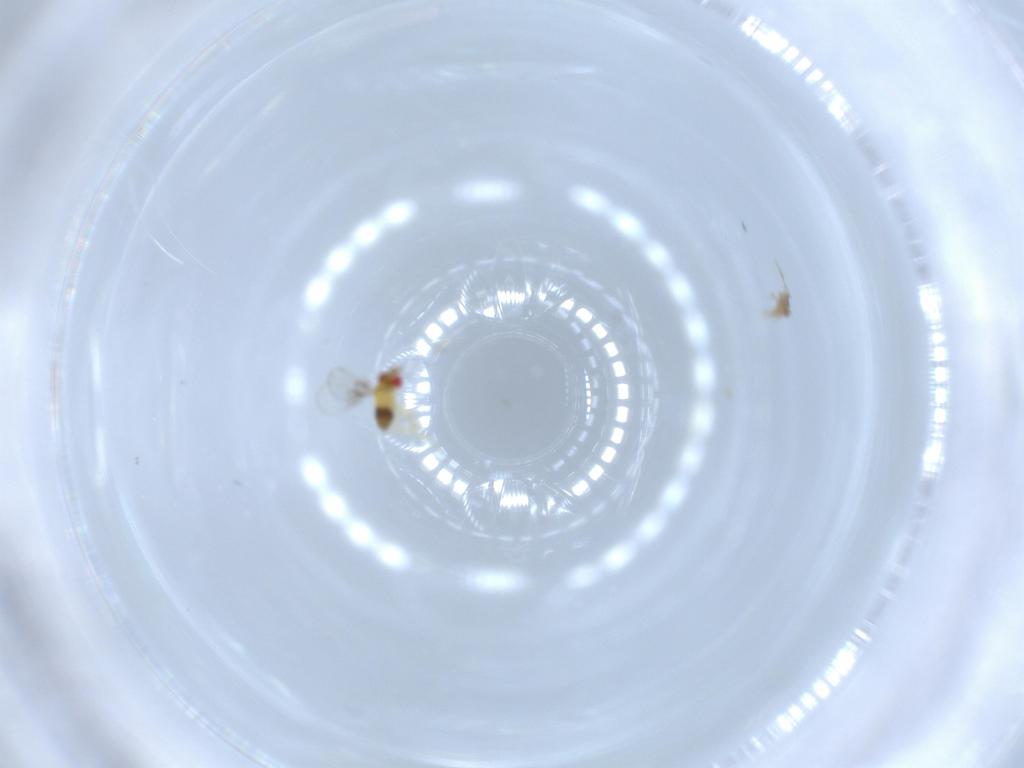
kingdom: Animalia
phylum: Arthropoda
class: Insecta
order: Hymenoptera
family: Trichogrammatidae
